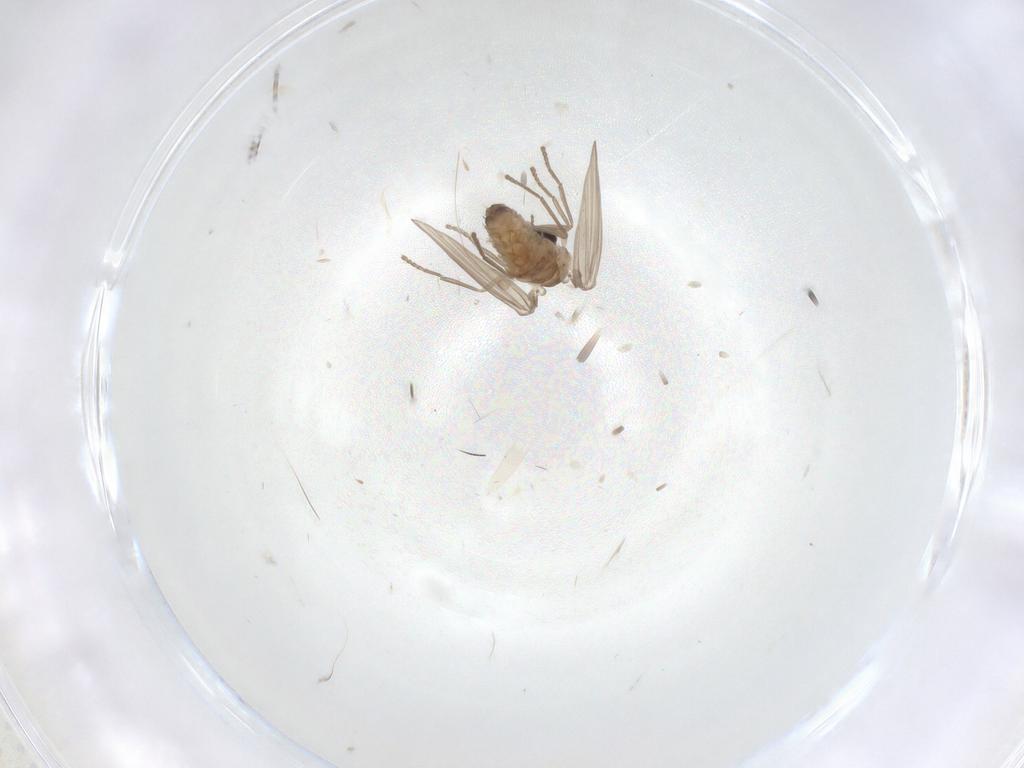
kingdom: Animalia
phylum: Arthropoda
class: Insecta
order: Diptera
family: Psychodidae
